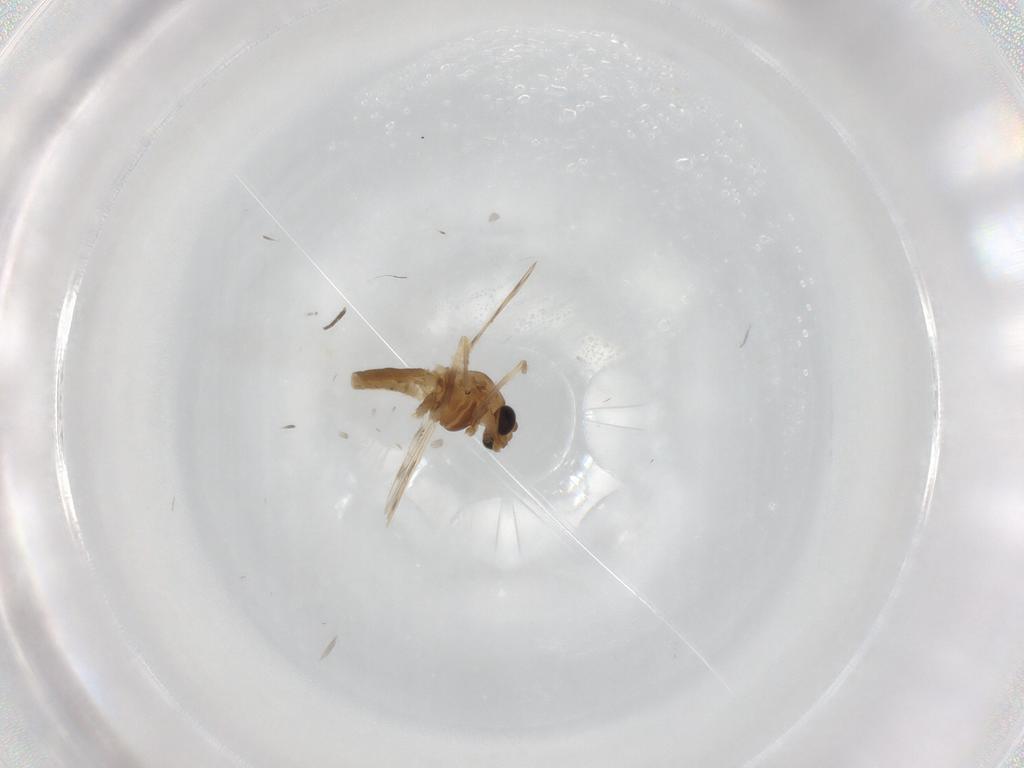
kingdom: Animalia
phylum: Arthropoda
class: Insecta
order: Diptera
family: Chironomidae
